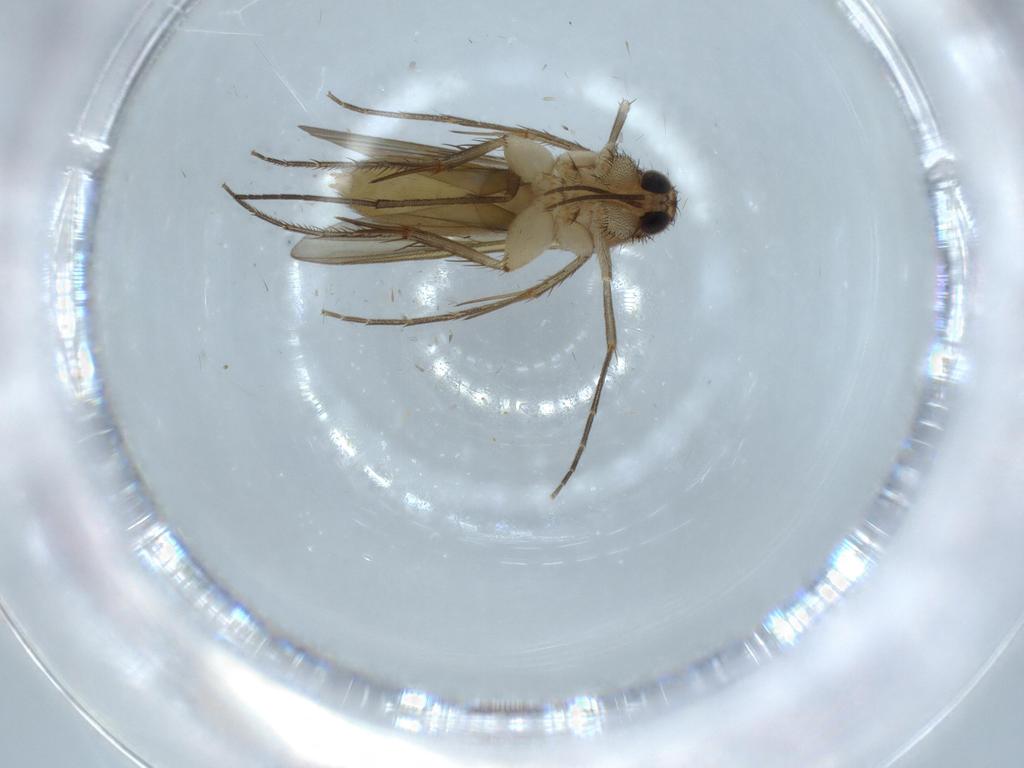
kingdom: Animalia
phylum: Arthropoda
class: Insecta
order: Diptera
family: Mycetophilidae
